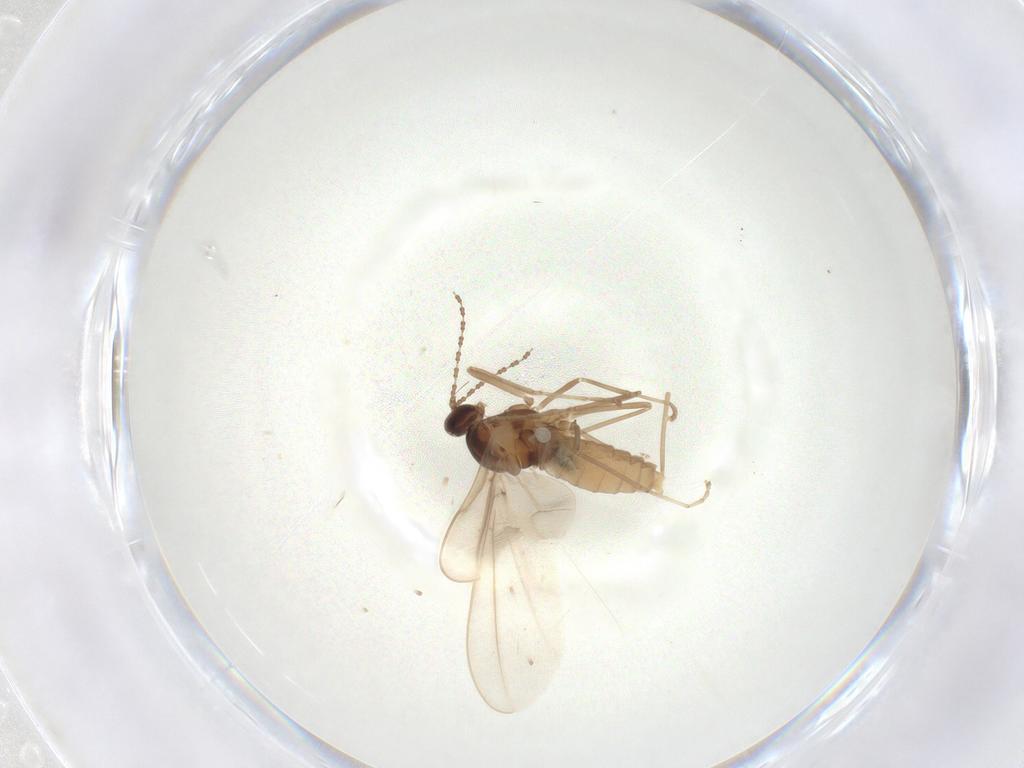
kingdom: Animalia
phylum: Arthropoda
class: Insecta
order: Diptera
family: Cecidomyiidae
